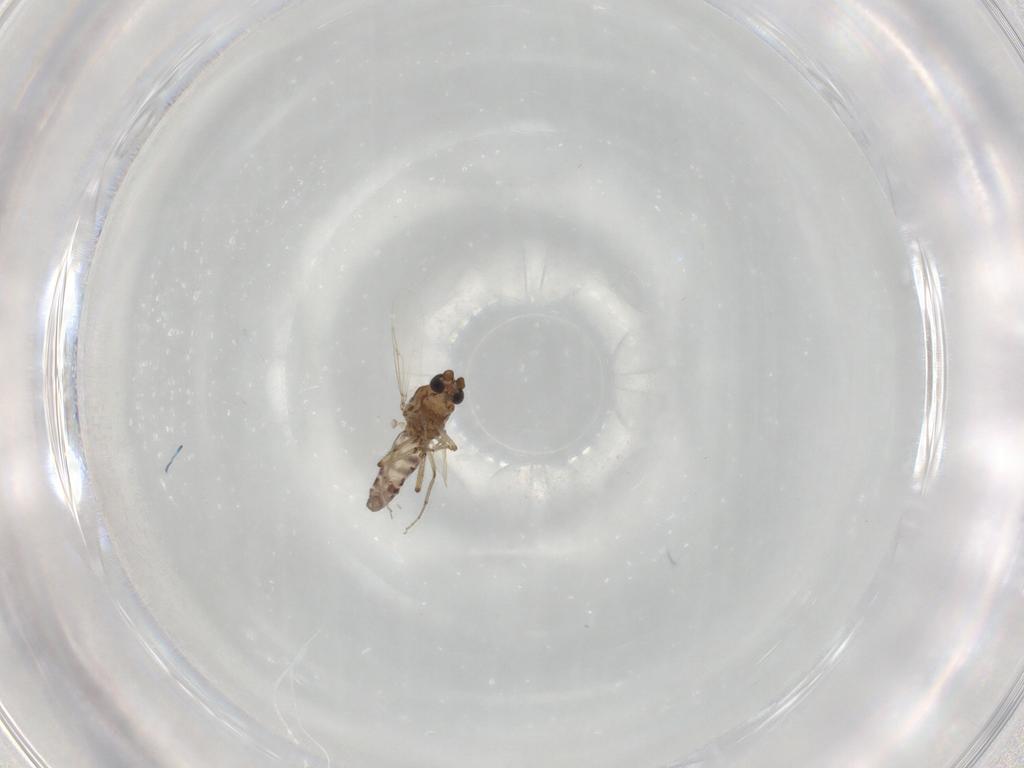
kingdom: Animalia
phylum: Arthropoda
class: Insecta
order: Diptera
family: Ceratopogonidae
